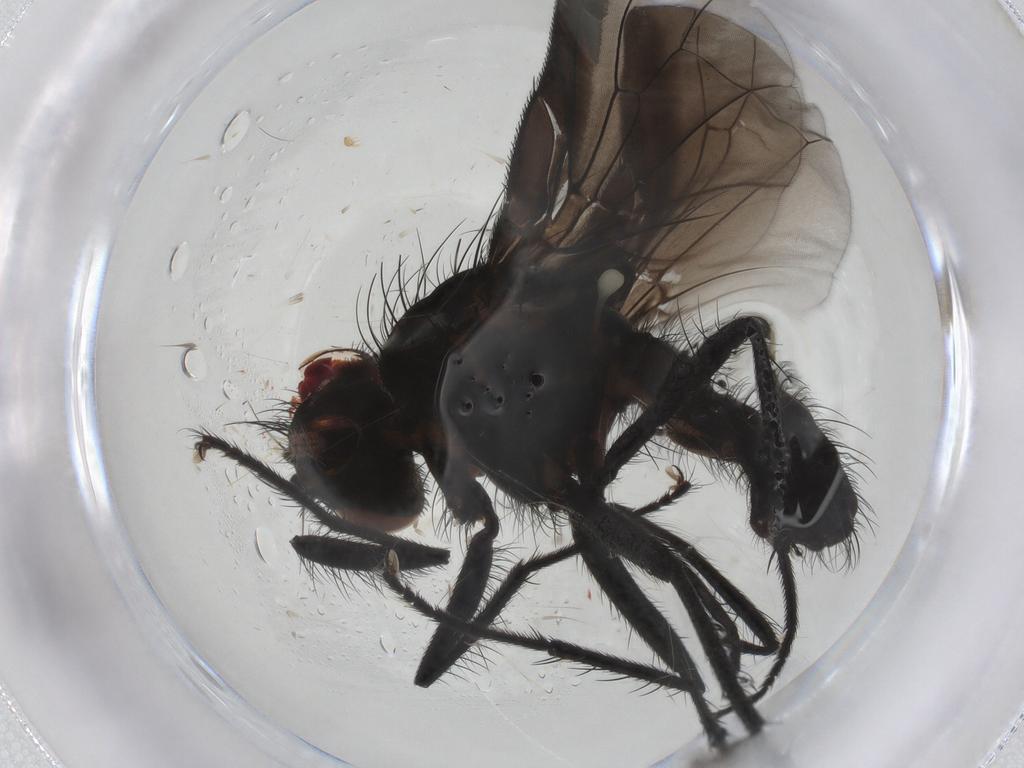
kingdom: Animalia
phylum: Arthropoda
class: Insecta
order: Diptera
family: Anthomyiidae
